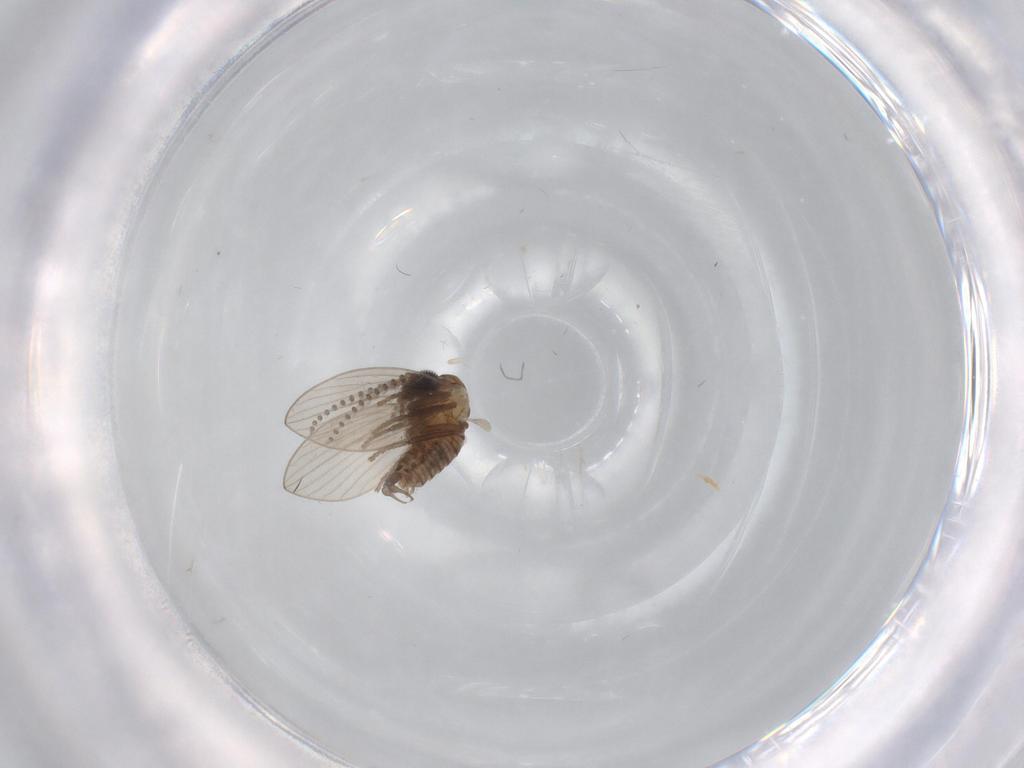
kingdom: Animalia
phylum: Arthropoda
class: Insecta
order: Diptera
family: Psychodidae
